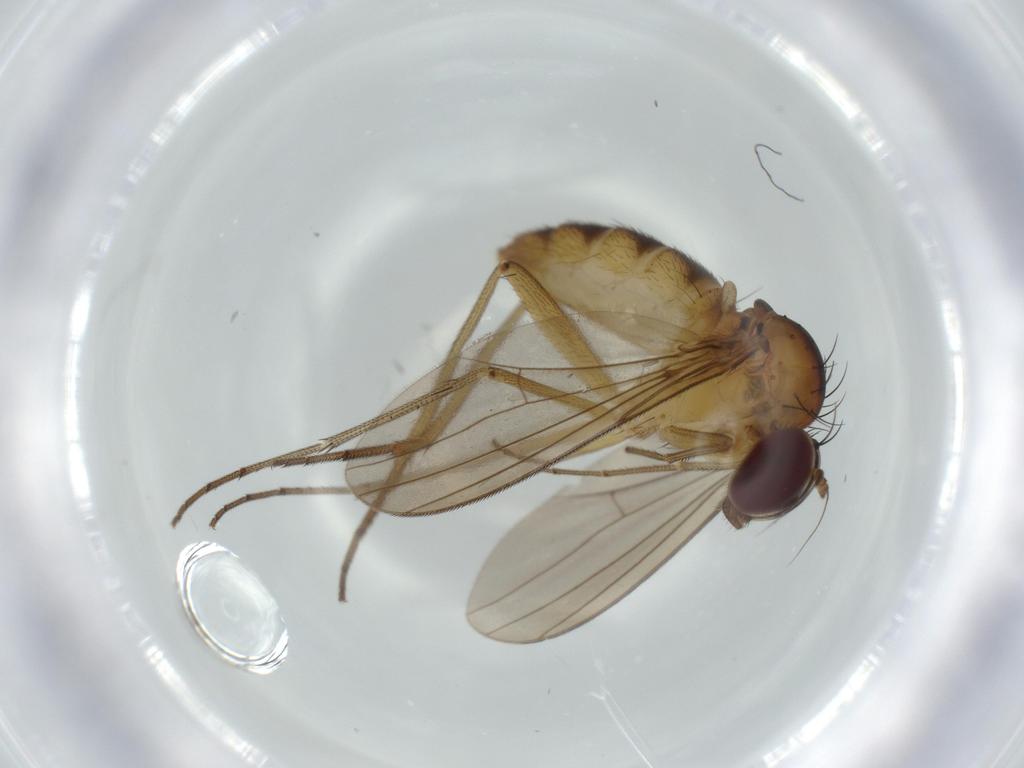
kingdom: Animalia
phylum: Arthropoda
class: Insecta
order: Diptera
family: Dolichopodidae
